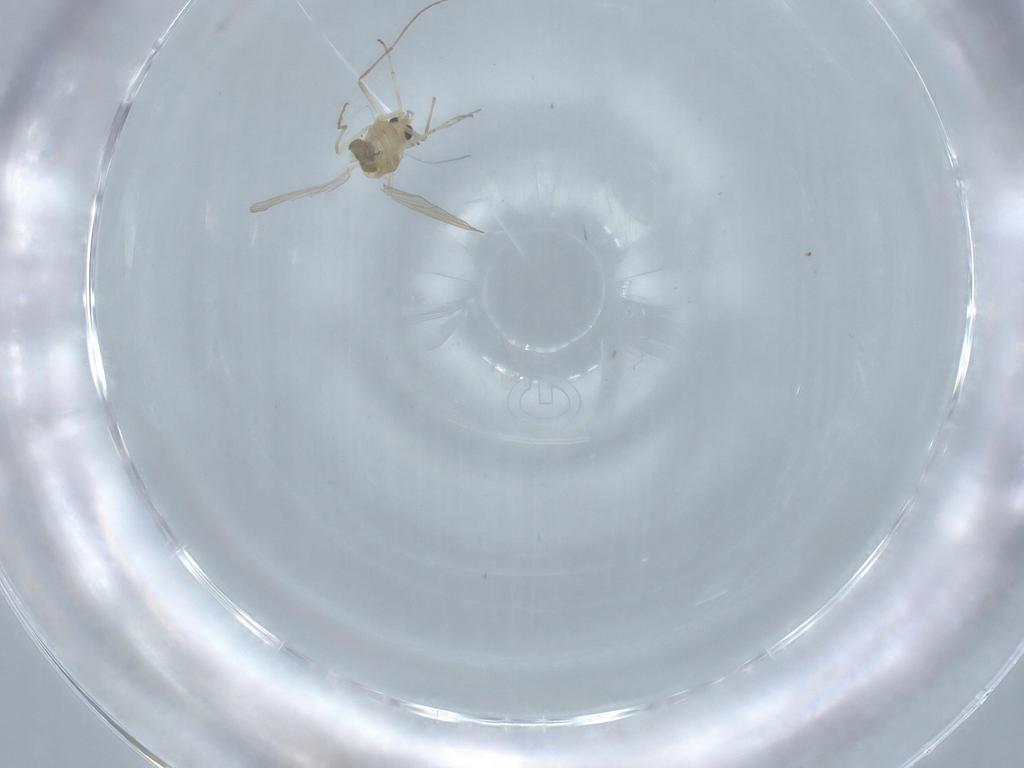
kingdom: Animalia
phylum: Arthropoda
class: Insecta
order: Diptera
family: Chironomidae
